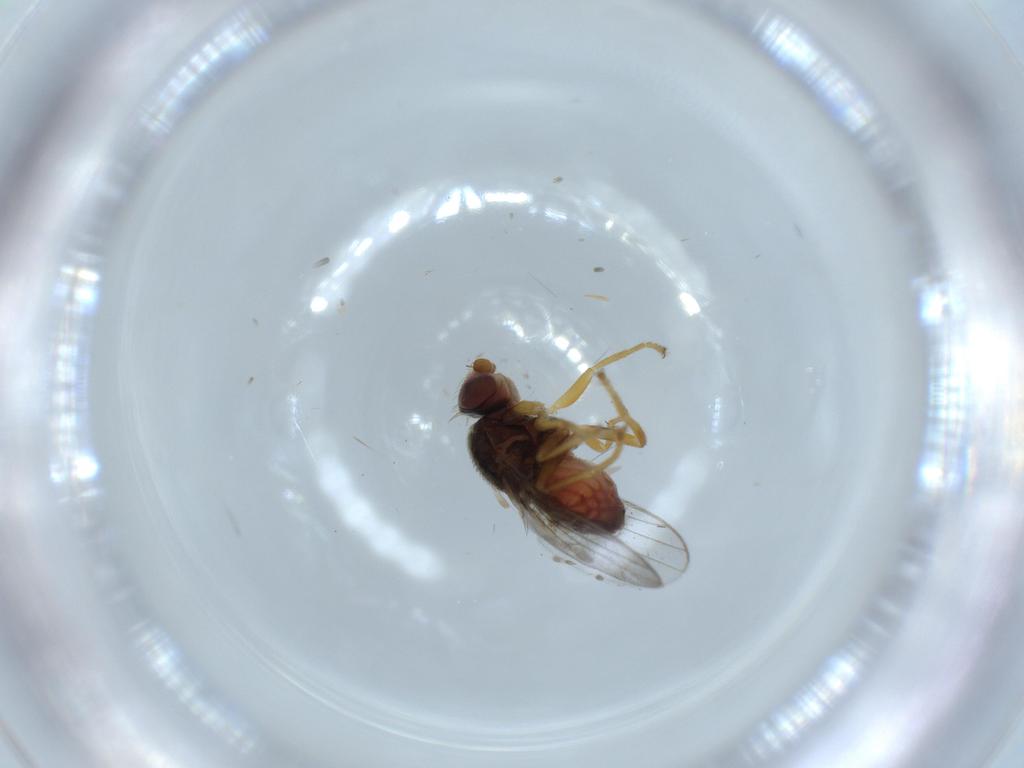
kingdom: Animalia
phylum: Arthropoda
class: Insecta
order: Diptera
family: Chloropidae
